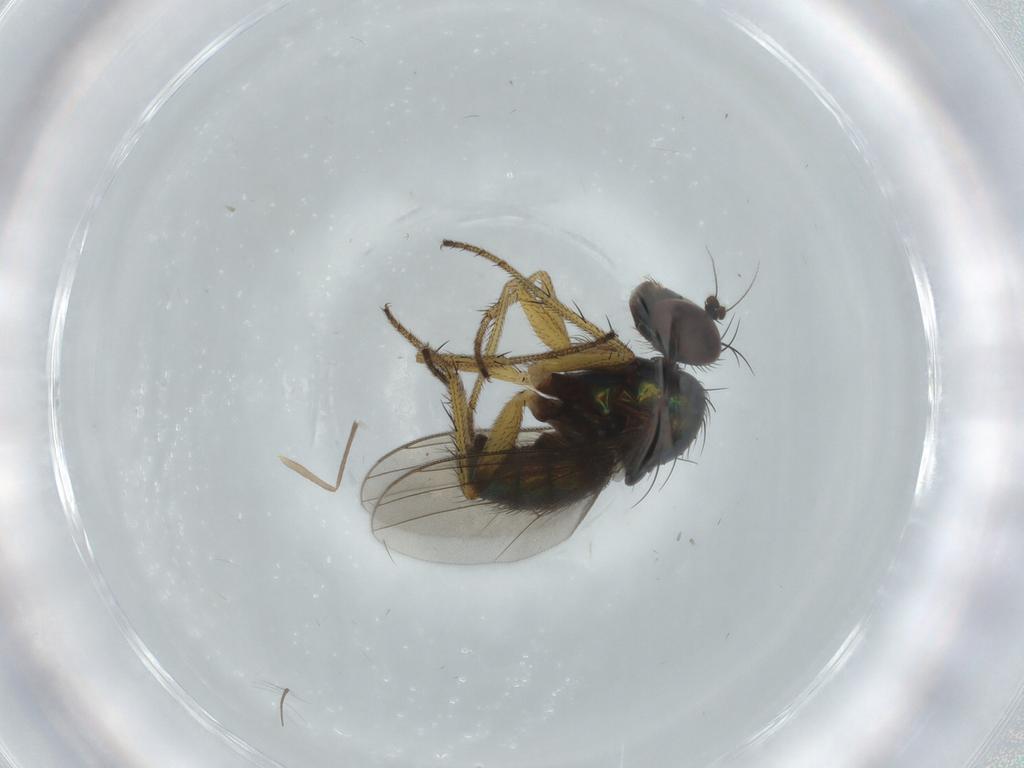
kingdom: Animalia
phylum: Arthropoda
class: Insecta
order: Diptera
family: Dolichopodidae
